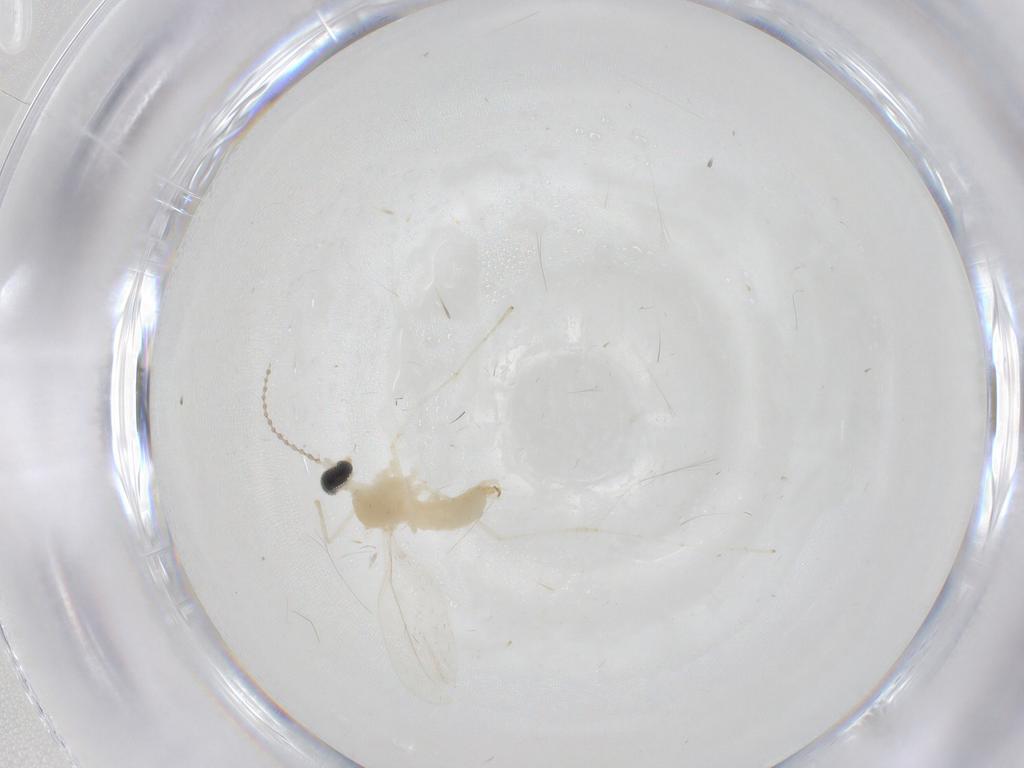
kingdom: Animalia
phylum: Arthropoda
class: Insecta
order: Diptera
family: Cecidomyiidae
